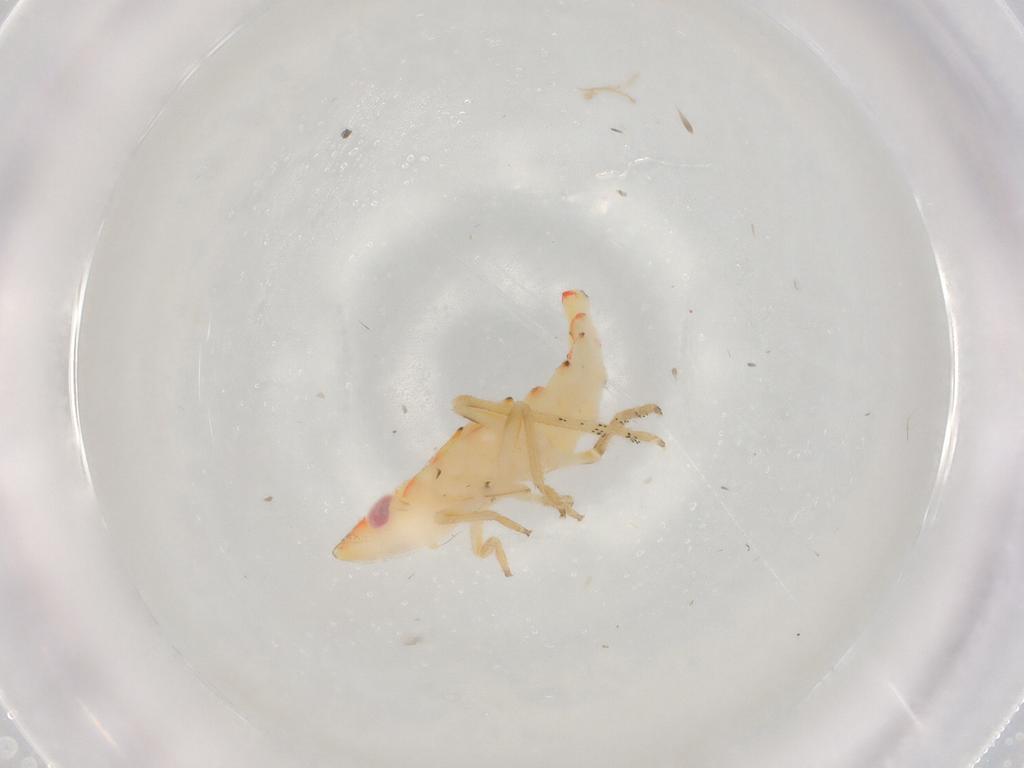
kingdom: Animalia
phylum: Arthropoda
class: Insecta
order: Hemiptera
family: Tropiduchidae
